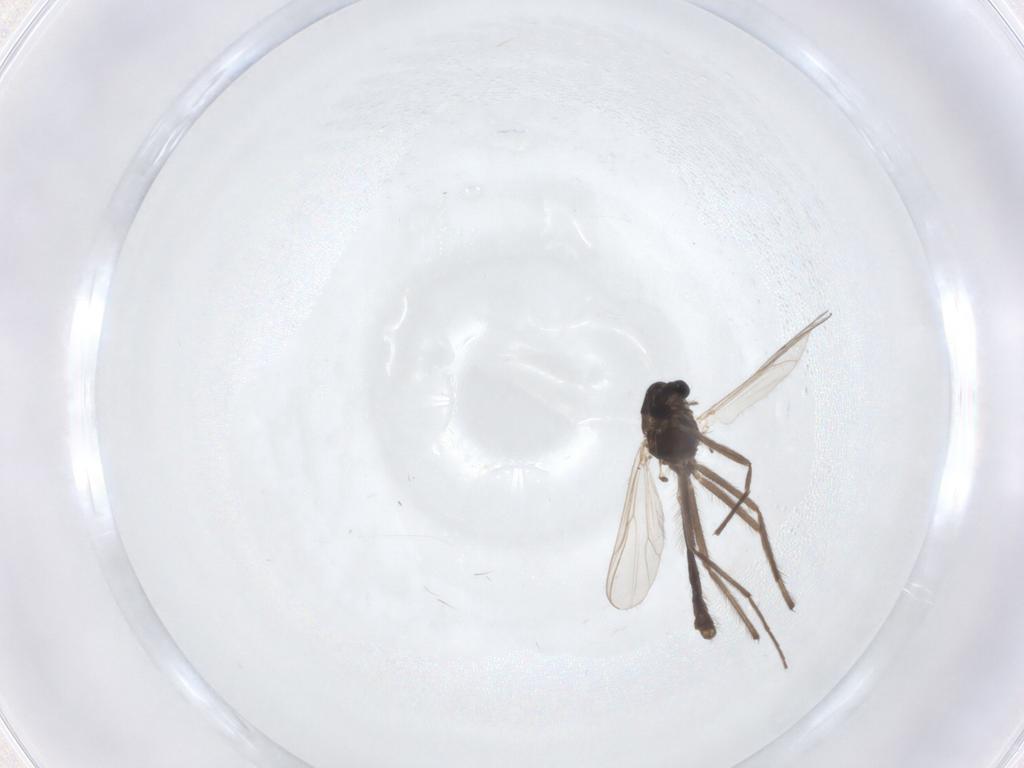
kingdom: Animalia
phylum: Arthropoda
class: Insecta
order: Diptera
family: Chironomidae
